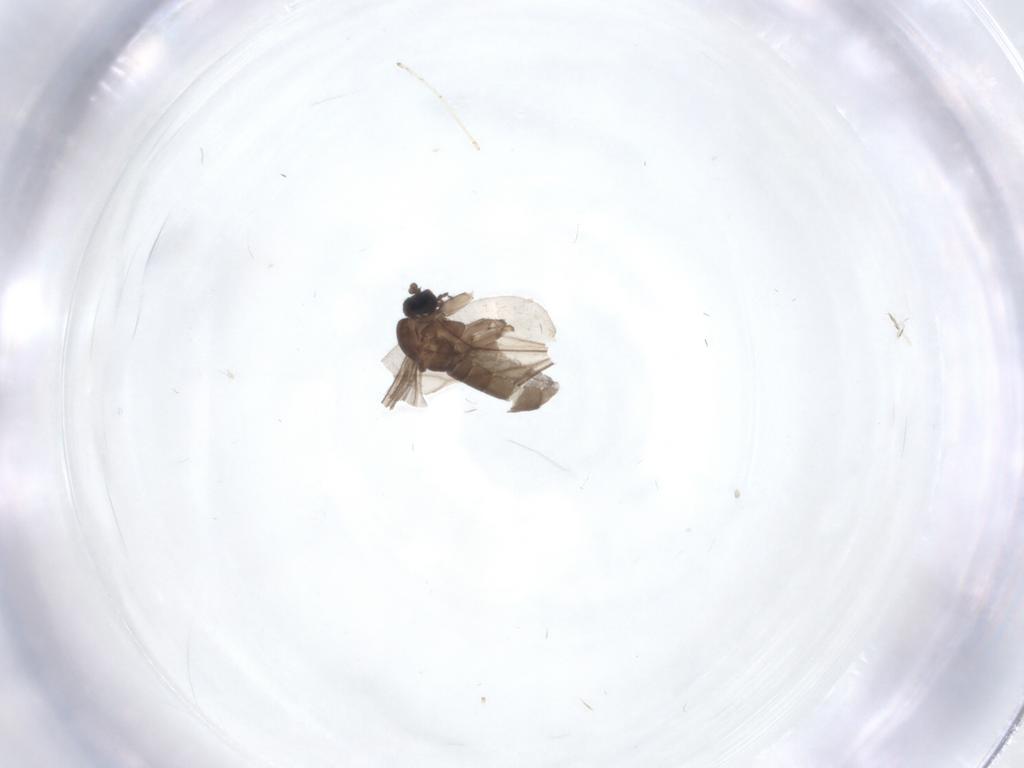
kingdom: Animalia
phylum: Arthropoda
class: Insecta
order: Diptera
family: Sciaridae
